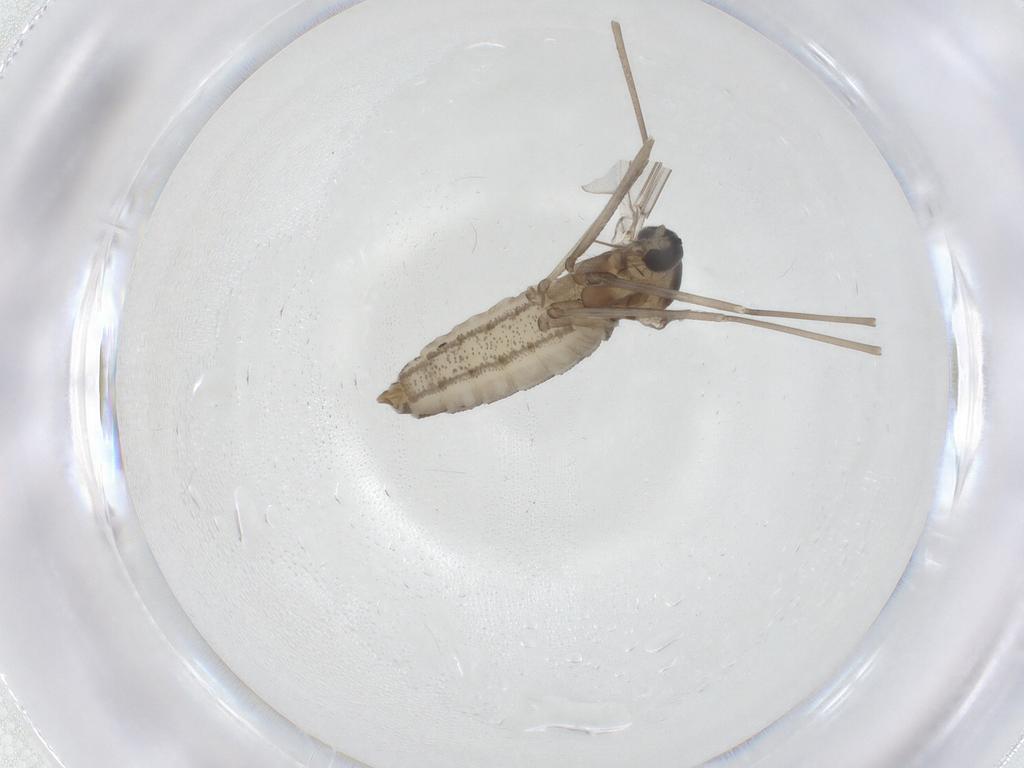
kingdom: Animalia
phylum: Arthropoda
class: Insecta
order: Diptera
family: Cecidomyiidae
